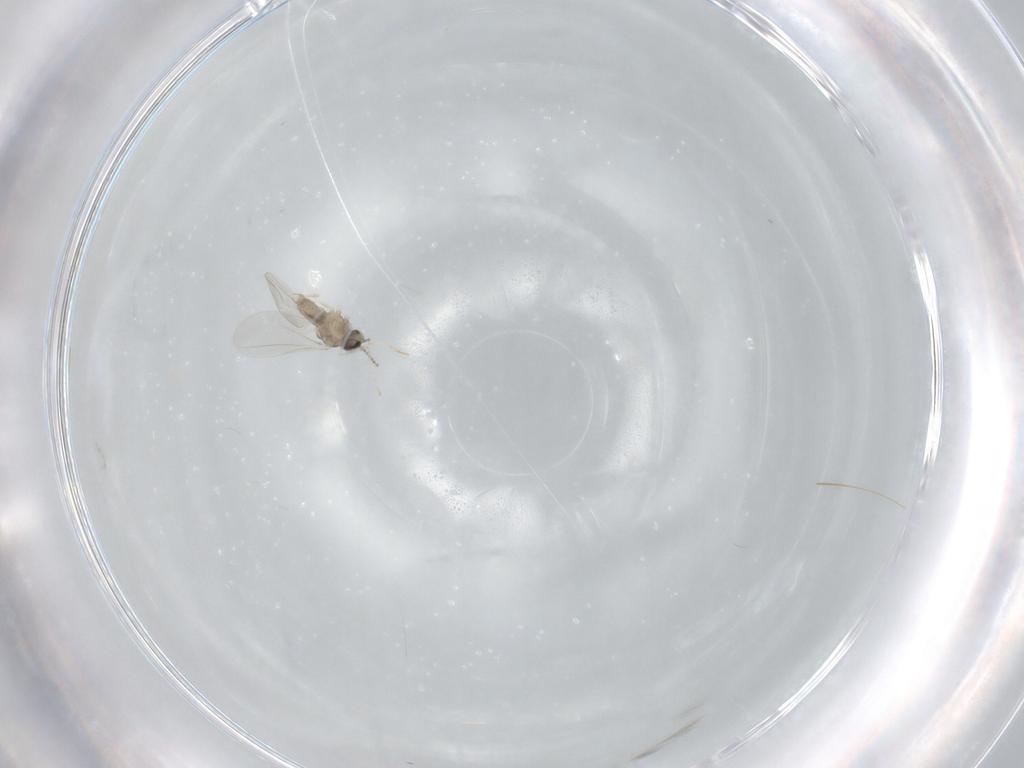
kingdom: Animalia
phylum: Arthropoda
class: Insecta
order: Diptera
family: Cecidomyiidae
